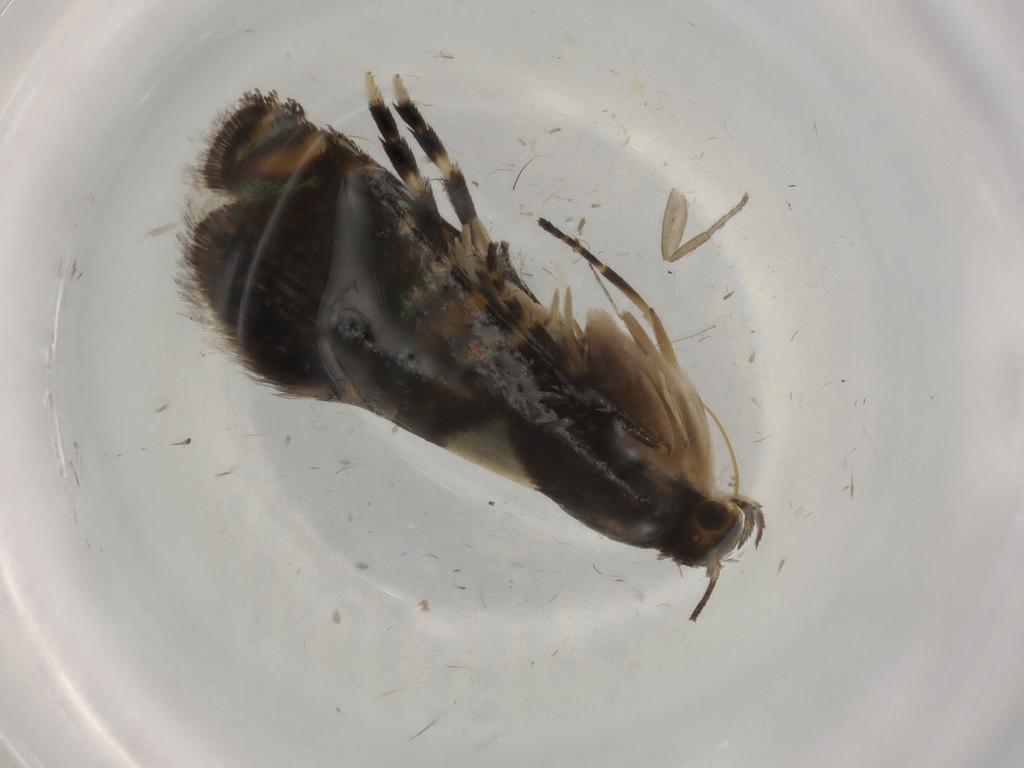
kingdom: Animalia
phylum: Arthropoda
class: Insecta
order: Lepidoptera
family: Glyphipterigidae
